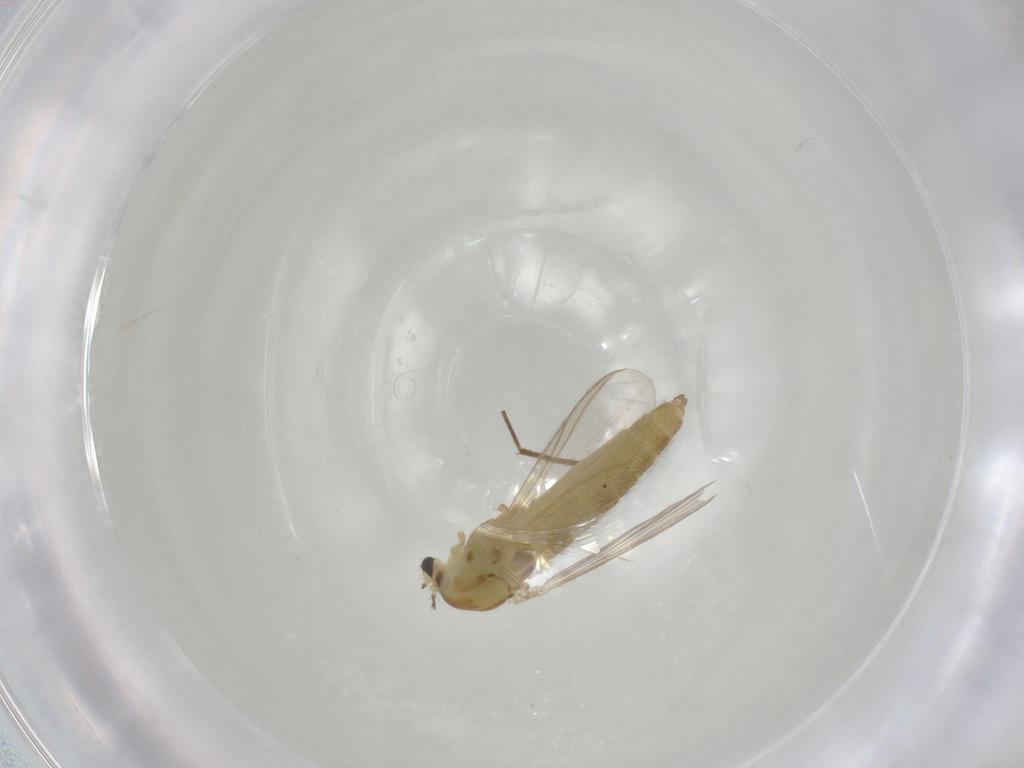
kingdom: Animalia
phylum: Arthropoda
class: Insecta
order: Diptera
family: Chironomidae
